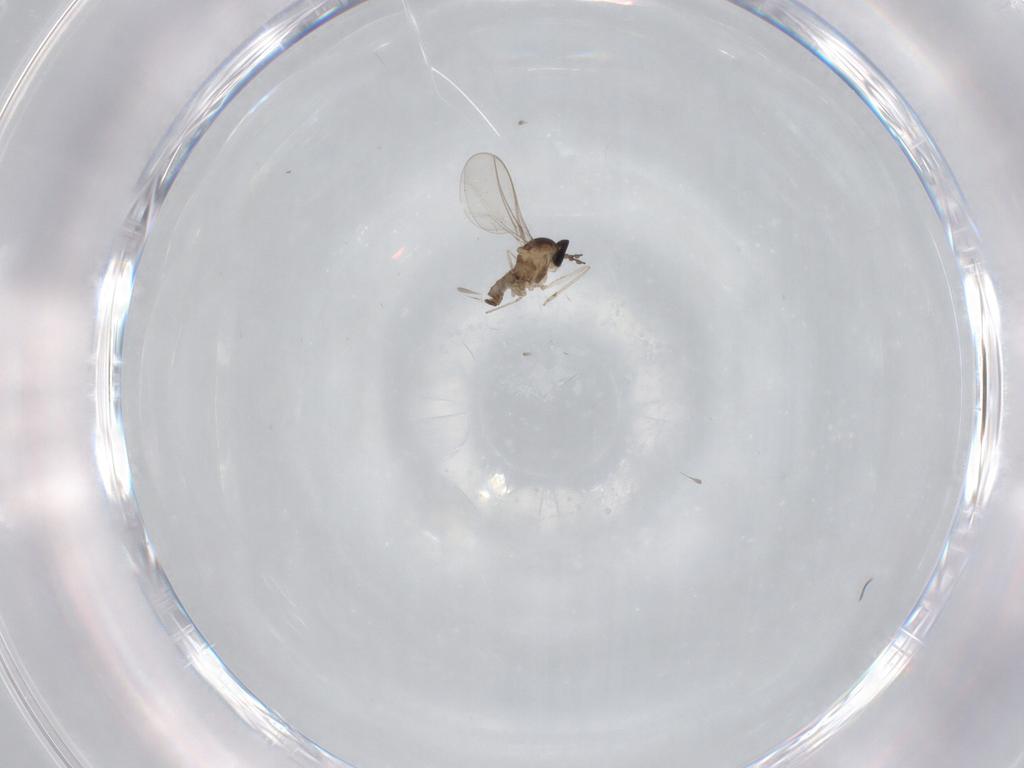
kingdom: Animalia
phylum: Arthropoda
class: Insecta
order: Diptera
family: Cecidomyiidae
